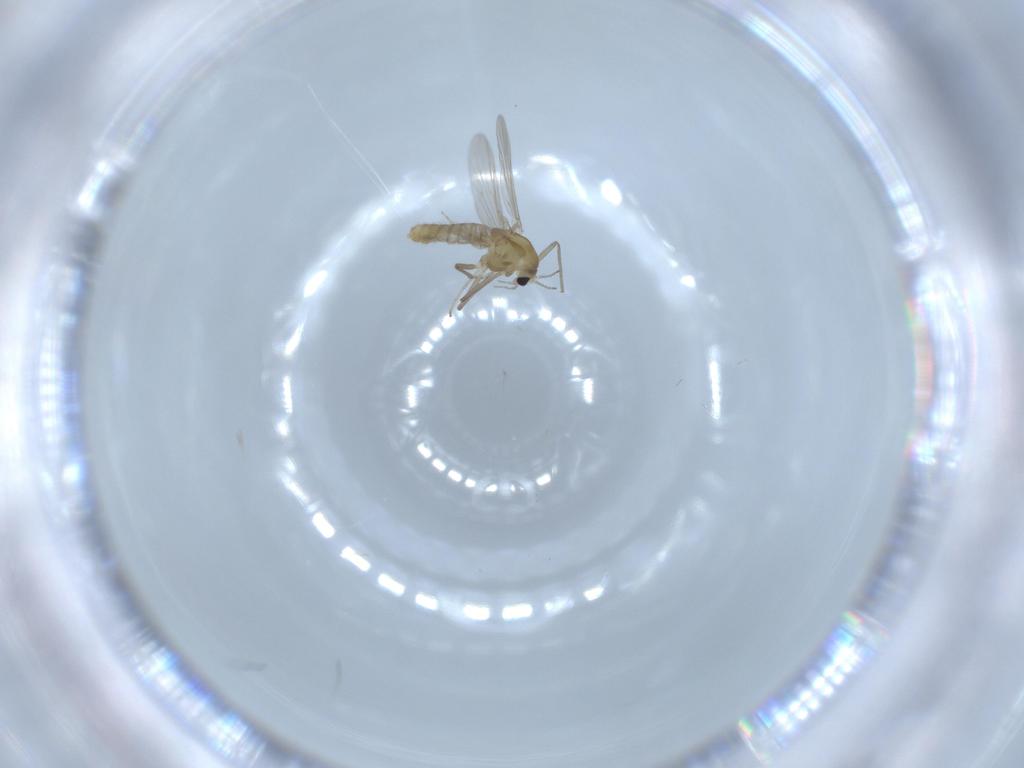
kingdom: Animalia
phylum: Arthropoda
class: Insecta
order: Diptera
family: Chironomidae
